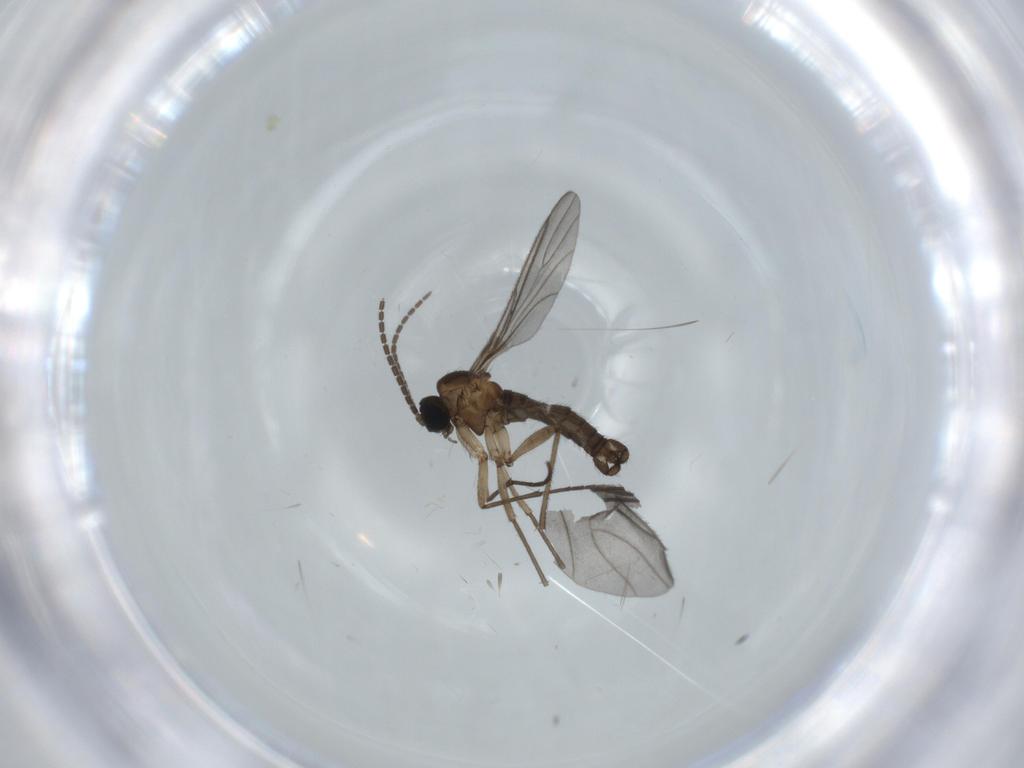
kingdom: Animalia
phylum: Arthropoda
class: Insecta
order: Diptera
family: Sciaridae
